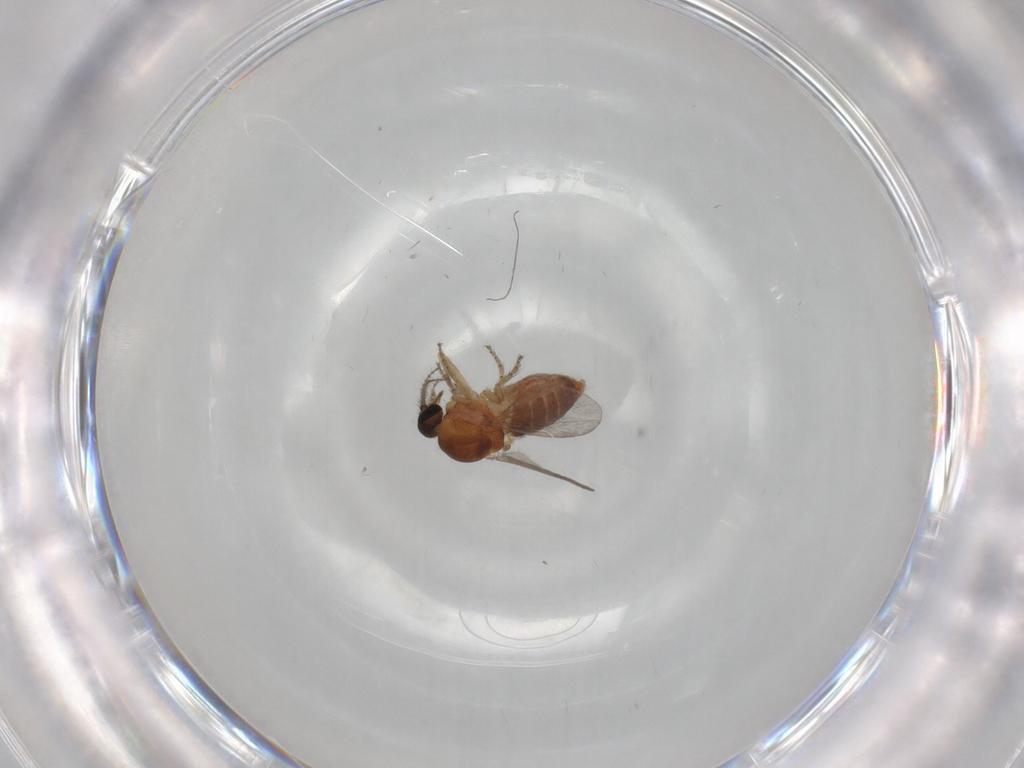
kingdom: Animalia
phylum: Arthropoda
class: Insecta
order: Diptera
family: Ceratopogonidae
